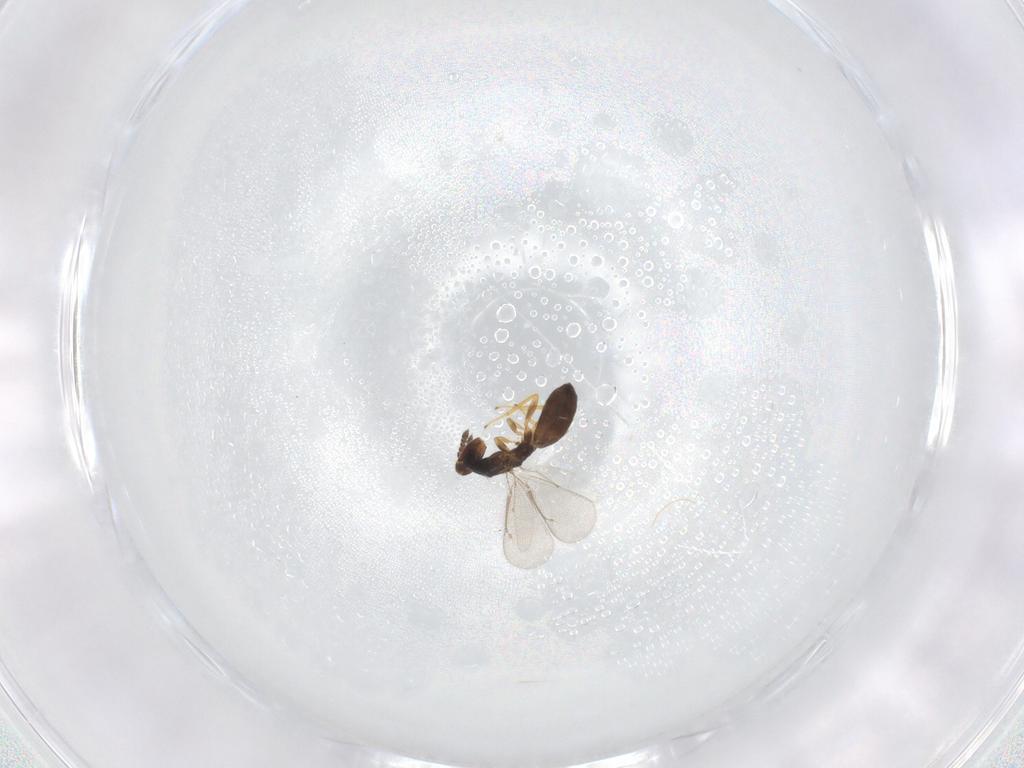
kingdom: Animalia
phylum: Arthropoda
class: Insecta
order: Hymenoptera
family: Eulophidae
